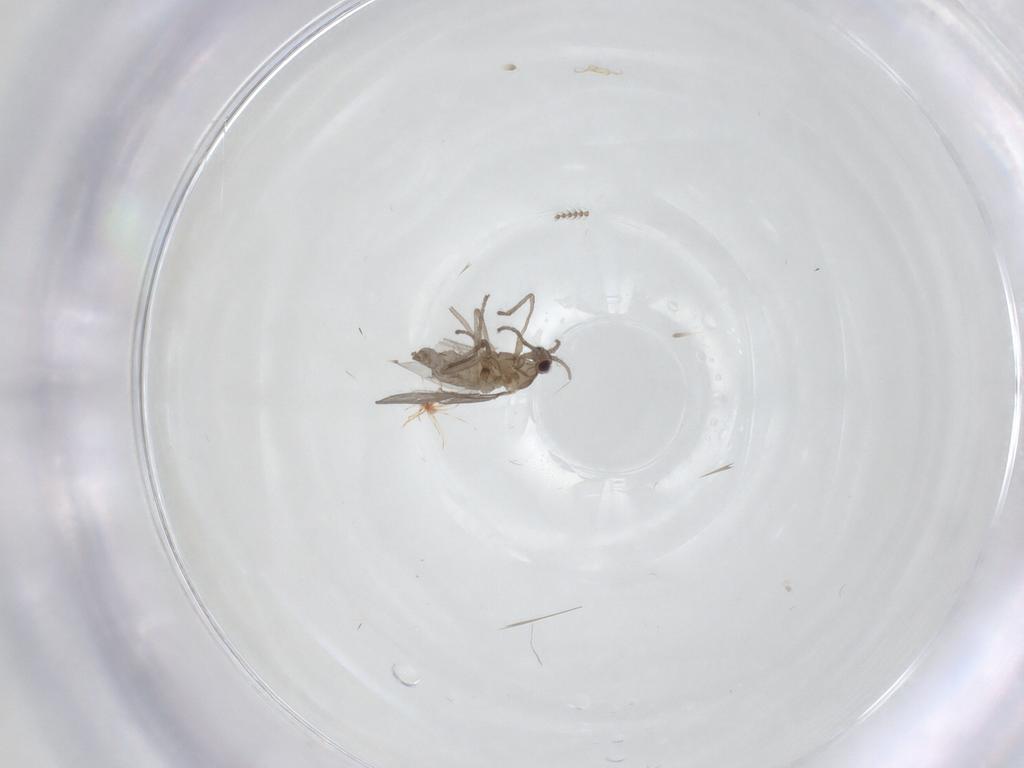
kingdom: Animalia
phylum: Arthropoda
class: Insecta
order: Diptera
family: Cecidomyiidae
